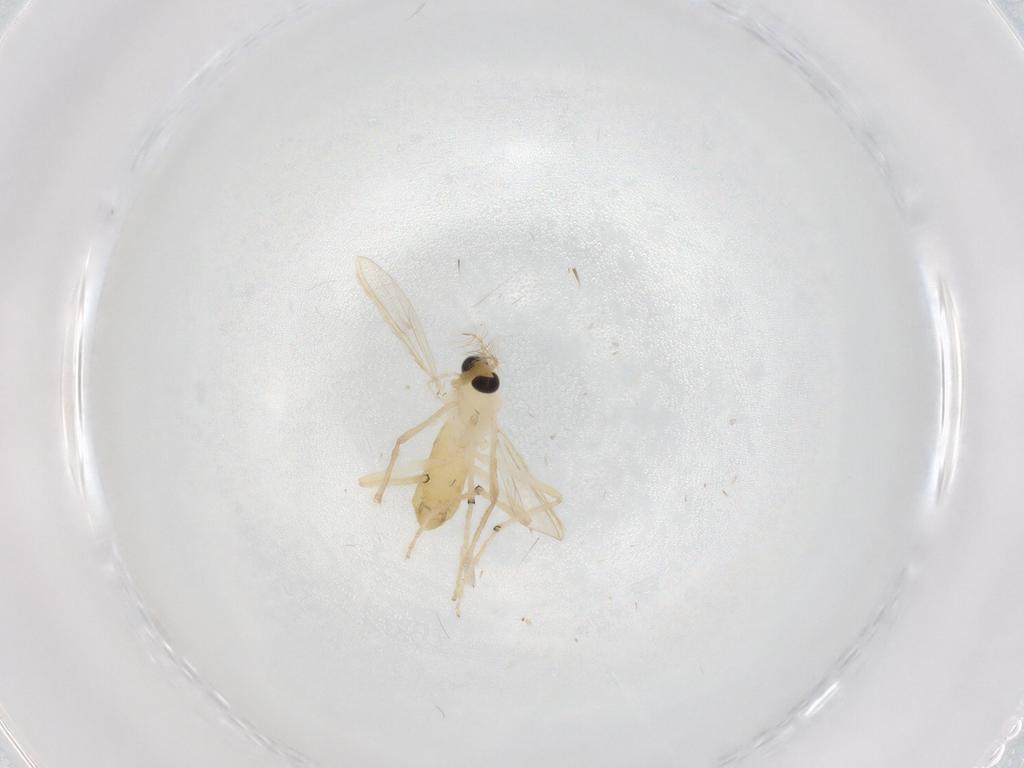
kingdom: Animalia
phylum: Arthropoda
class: Insecta
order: Diptera
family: Chironomidae
